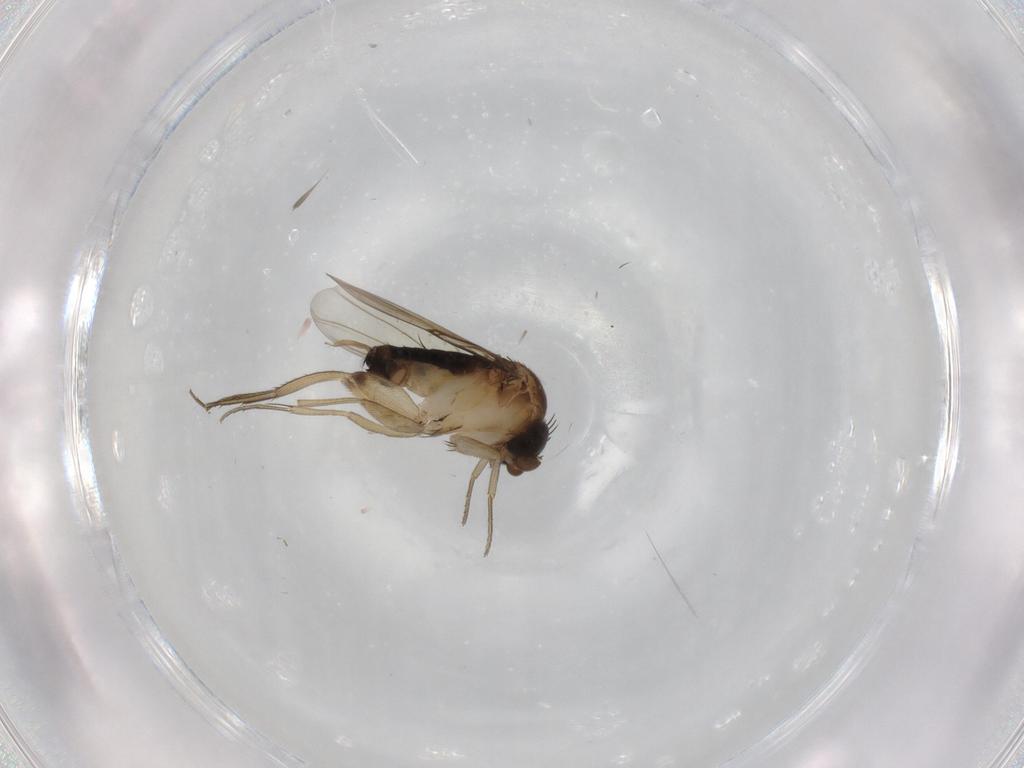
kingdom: Animalia
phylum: Arthropoda
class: Insecta
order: Diptera
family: Phoridae
